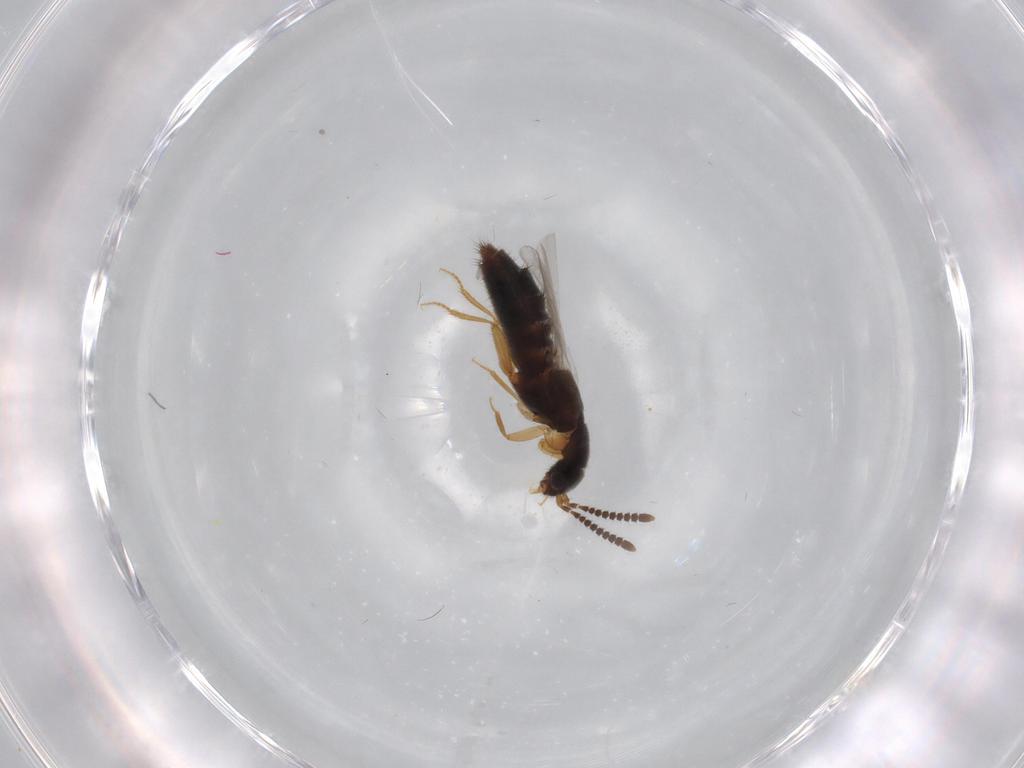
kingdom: Animalia
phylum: Arthropoda
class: Insecta
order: Coleoptera
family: Staphylinidae
